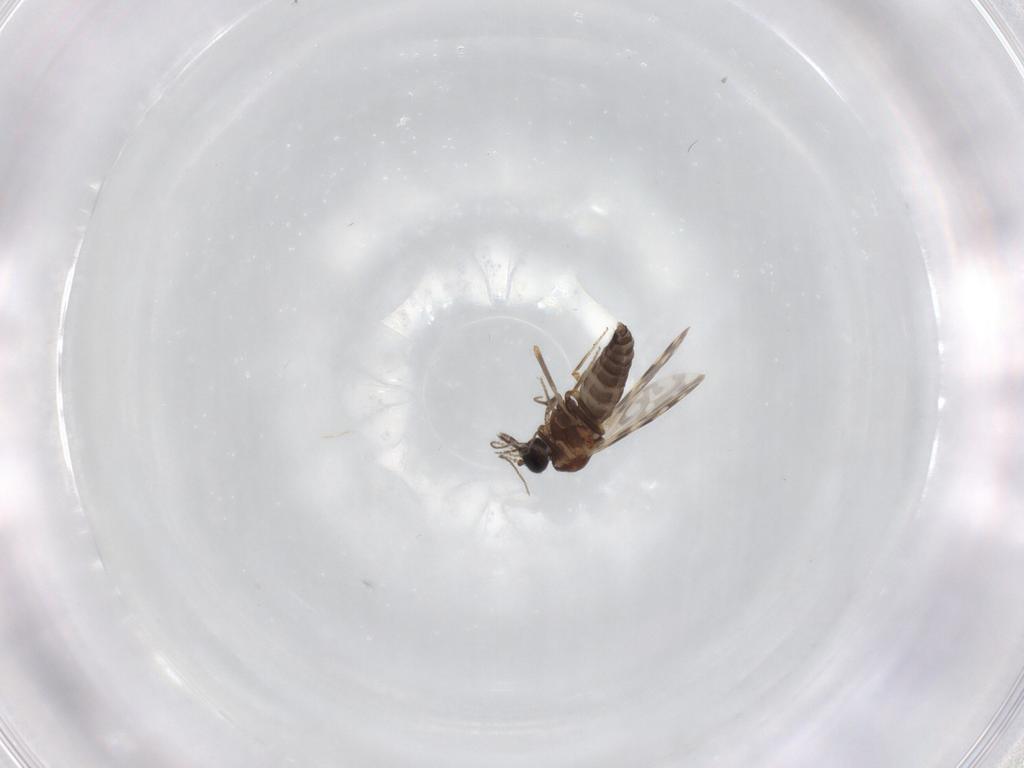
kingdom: Animalia
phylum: Arthropoda
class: Insecta
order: Diptera
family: Ceratopogonidae
